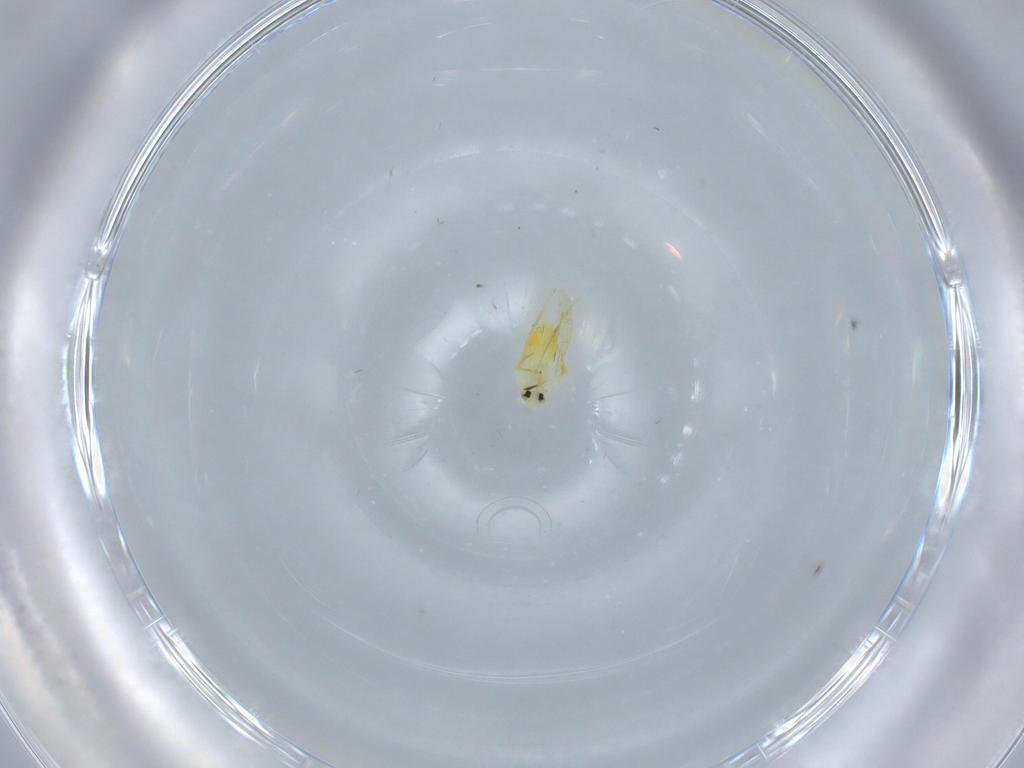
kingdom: Animalia
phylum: Arthropoda
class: Insecta
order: Hemiptera
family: Aleyrodidae
